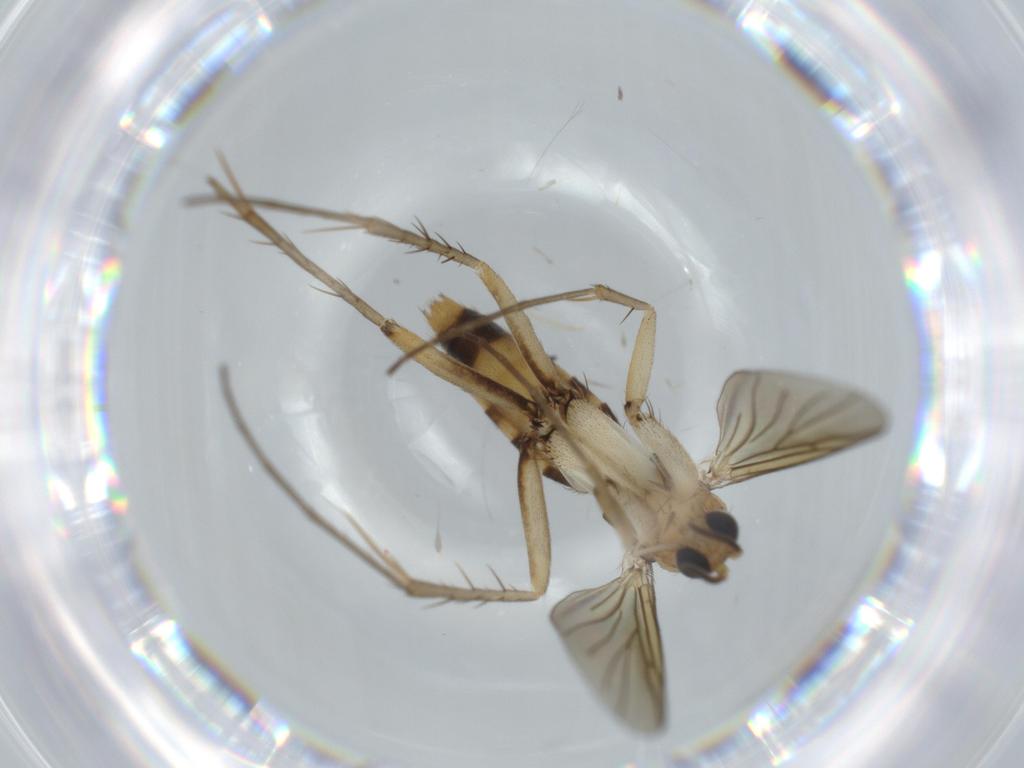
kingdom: Animalia
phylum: Arthropoda
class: Insecta
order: Diptera
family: Mycetophilidae
